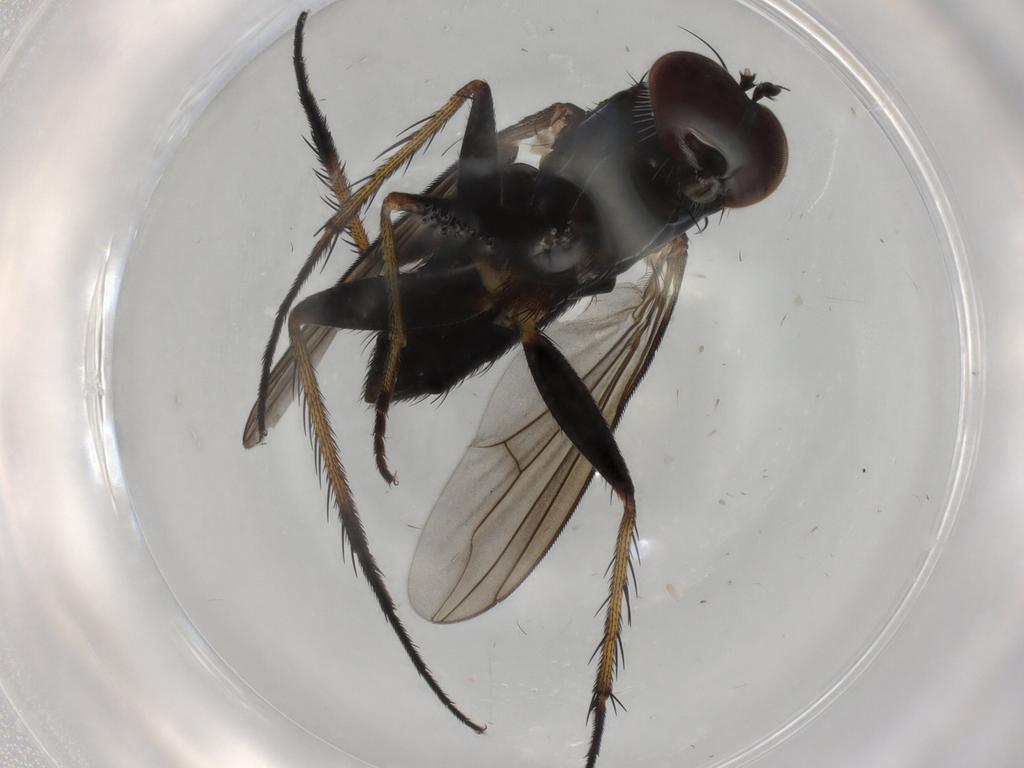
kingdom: Animalia
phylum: Arthropoda
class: Insecta
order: Diptera
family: Dolichopodidae
